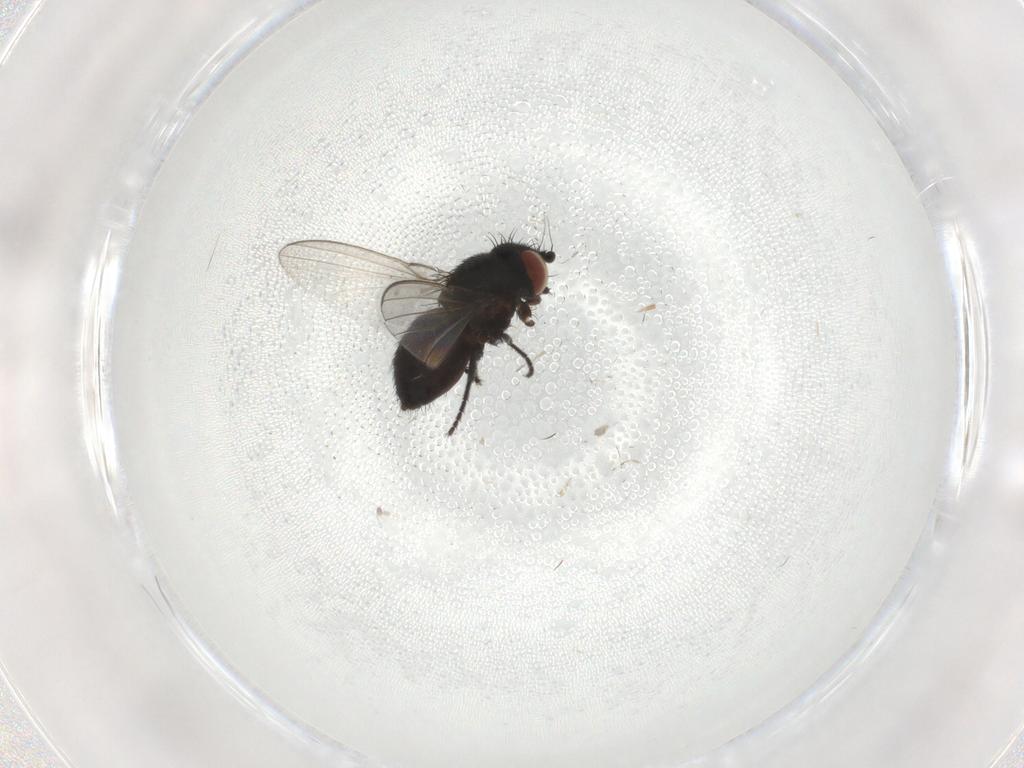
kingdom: Animalia
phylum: Arthropoda
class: Insecta
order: Diptera
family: Milichiidae
